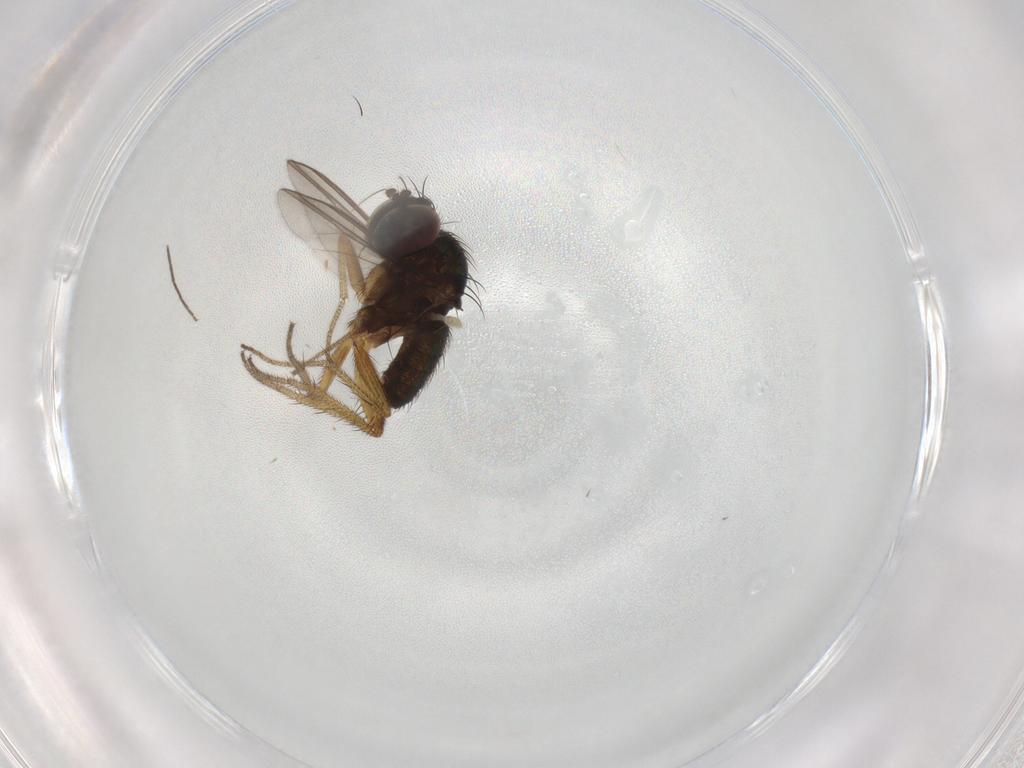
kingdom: Animalia
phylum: Arthropoda
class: Insecta
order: Diptera
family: Dolichopodidae
